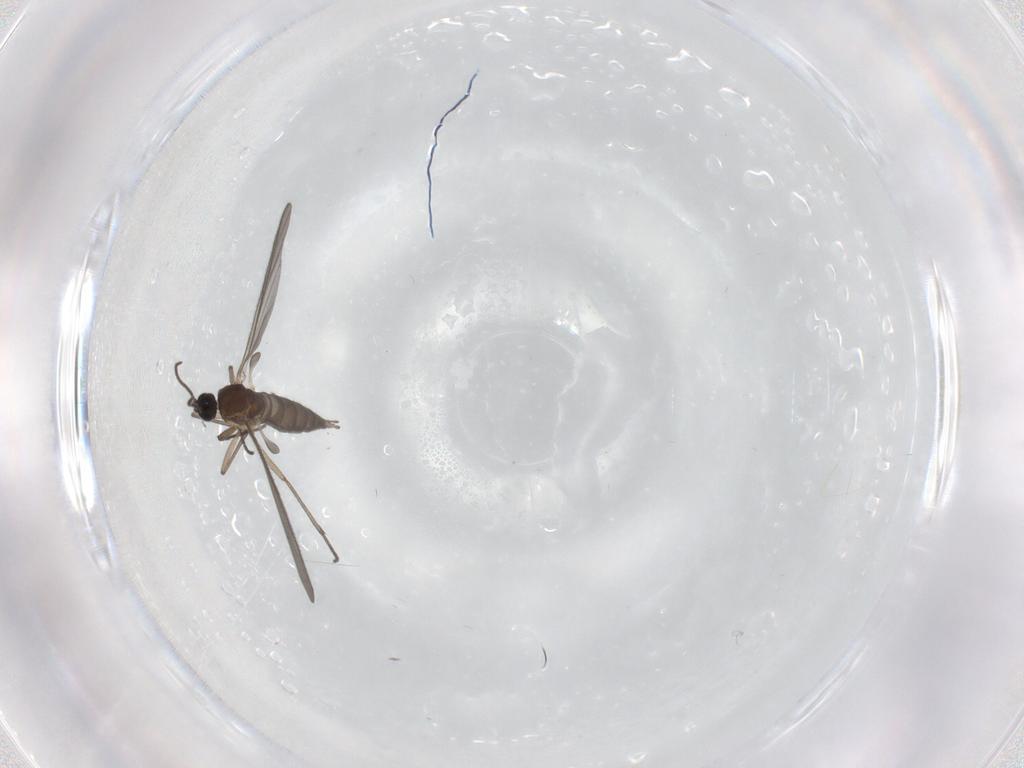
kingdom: Animalia
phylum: Arthropoda
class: Insecta
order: Diptera
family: Sciaridae
